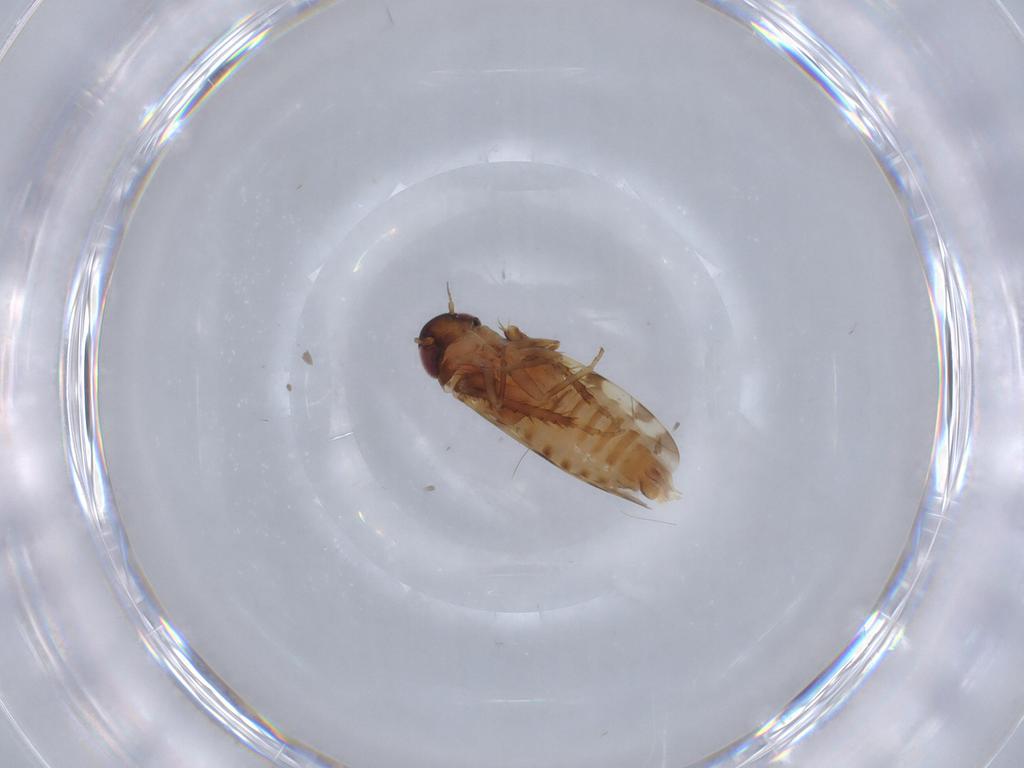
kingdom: Animalia
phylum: Arthropoda
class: Insecta
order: Hemiptera
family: Cicadellidae
